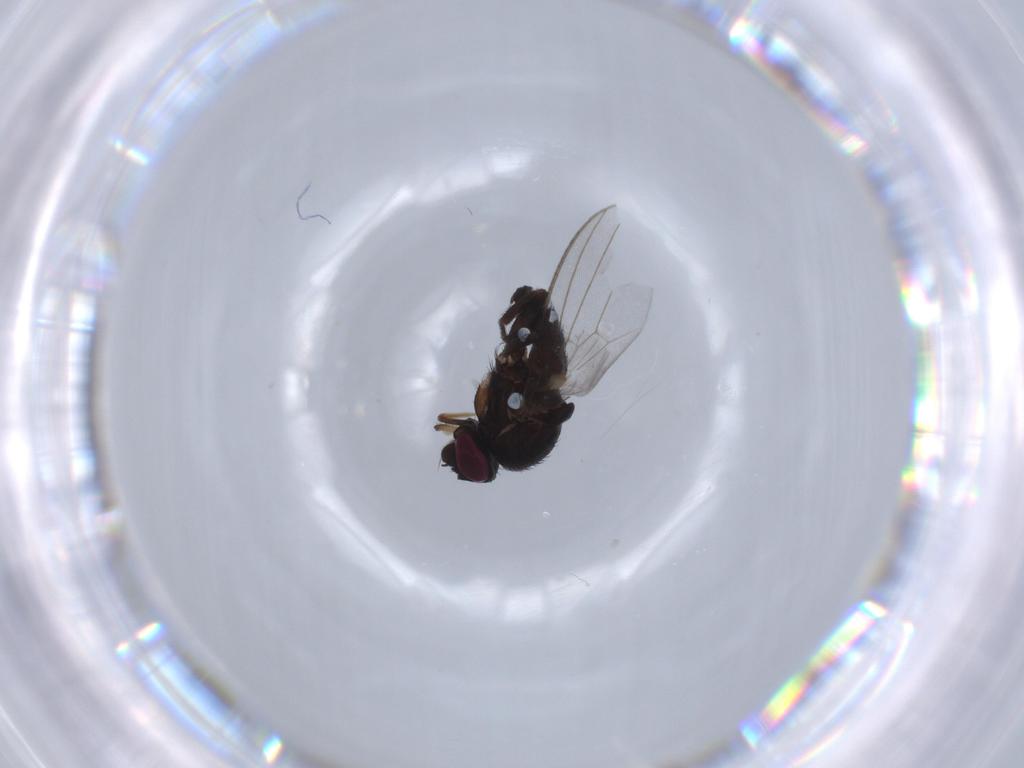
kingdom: Animalia
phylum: Arthropoda
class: Insecta
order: Diptera
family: Milichiidae
